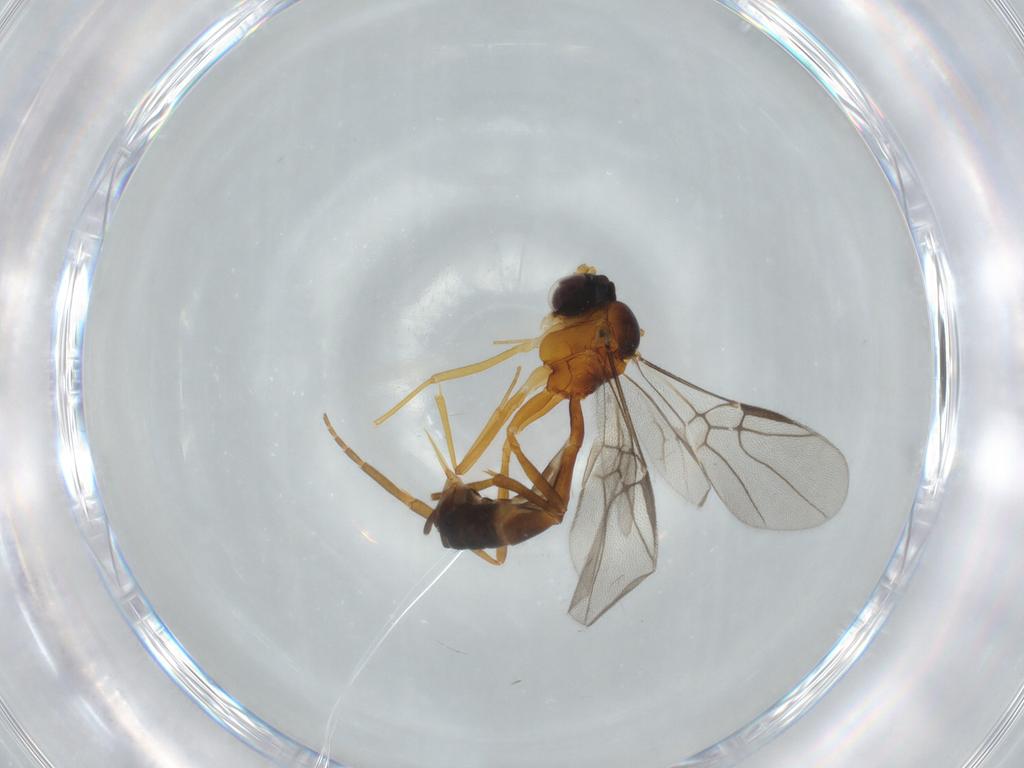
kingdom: Animalia
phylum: Arthropoda
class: Insecta
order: Hymenoptera
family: Ichneumonidae
